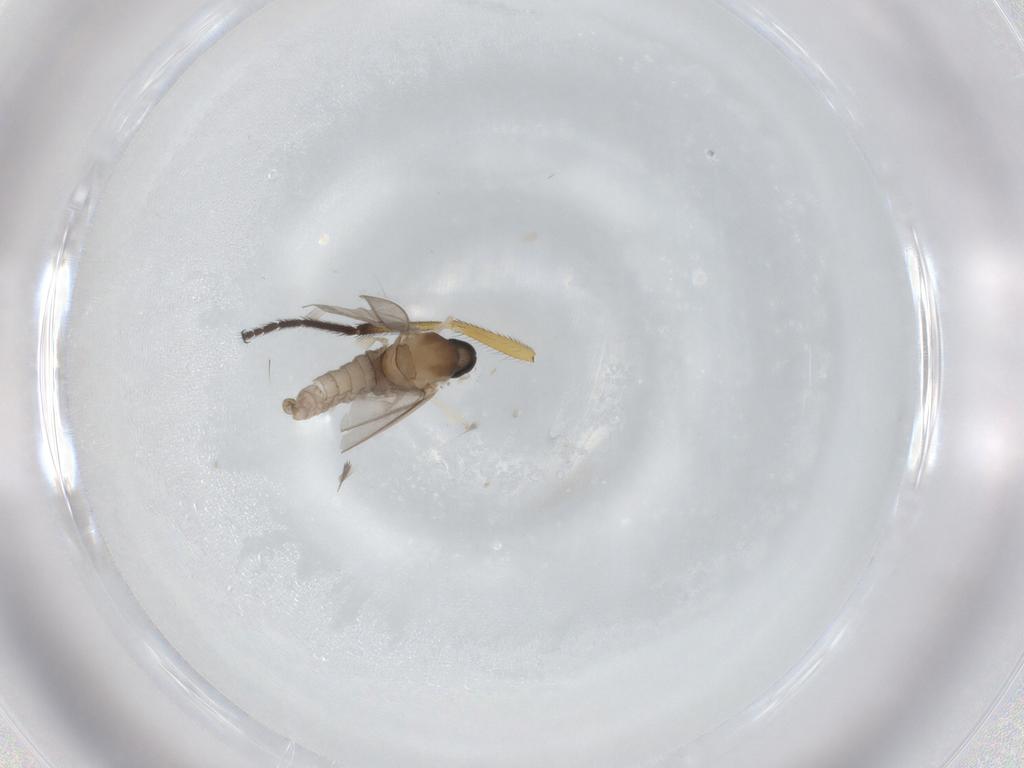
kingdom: Animalia
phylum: Arthropoda
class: Insecta
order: Diptera
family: Cecidomyiidae
